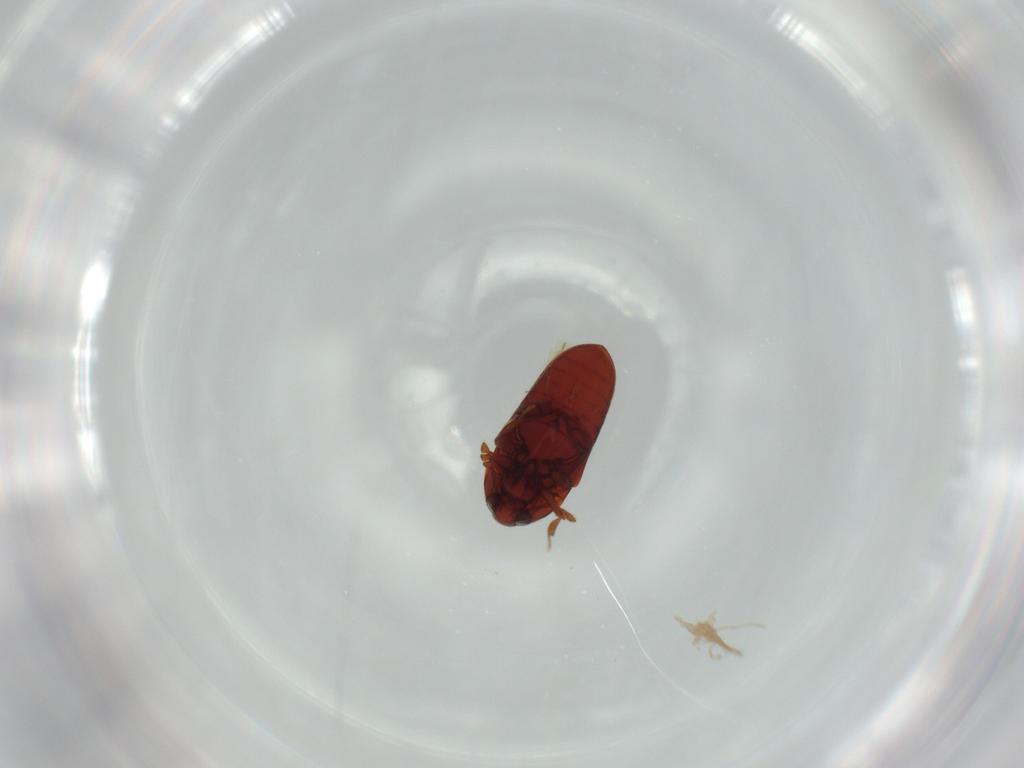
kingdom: Animalia
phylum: Arthropoda
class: Insecta
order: Coleoptera
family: Throscidae
